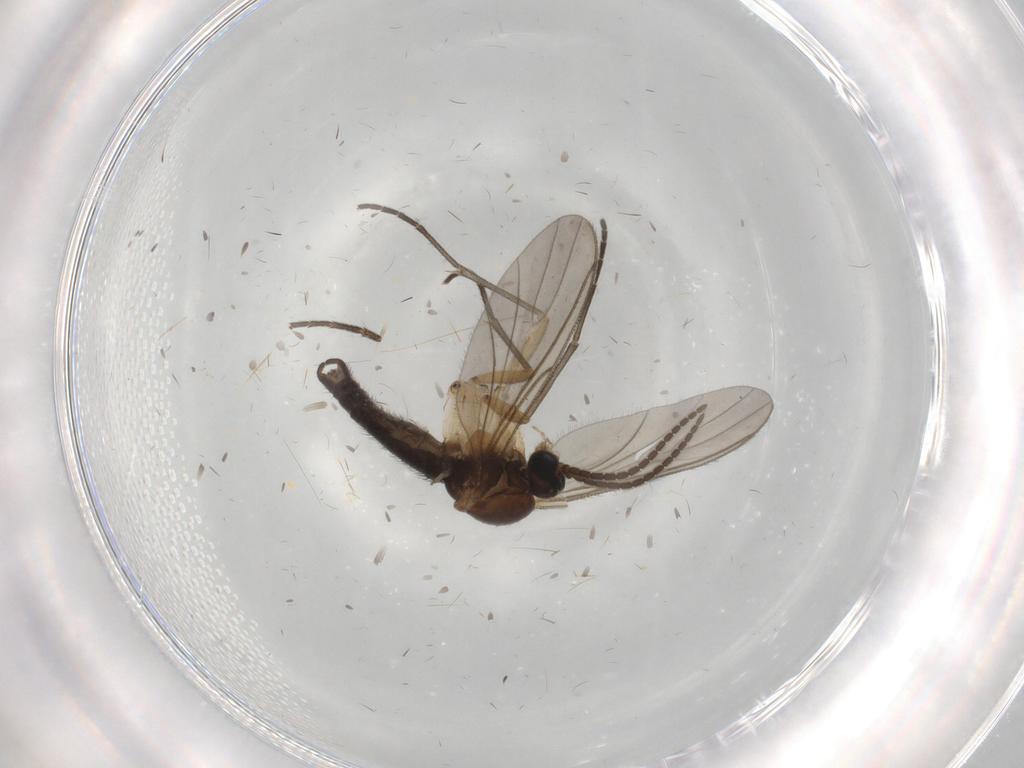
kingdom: Animalia
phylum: Arthropoda
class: Insecta
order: Diptera
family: Sciaridae
